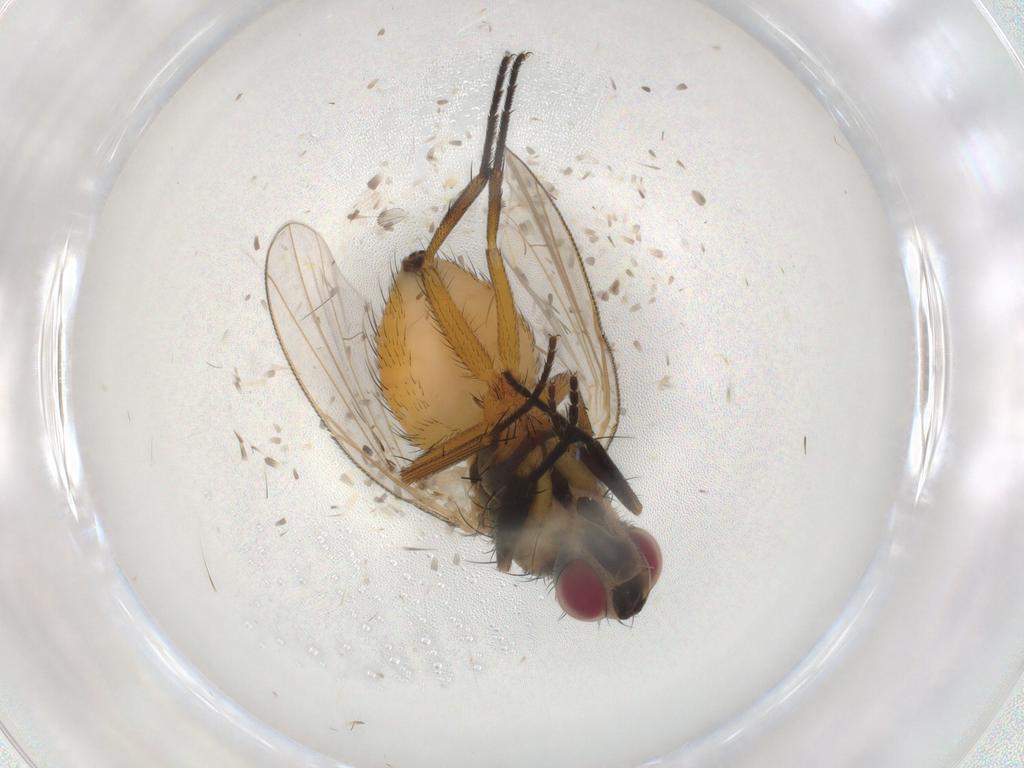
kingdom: Animalia
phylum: Arthropoda
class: Insecta
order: Diptera
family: Muscidae
